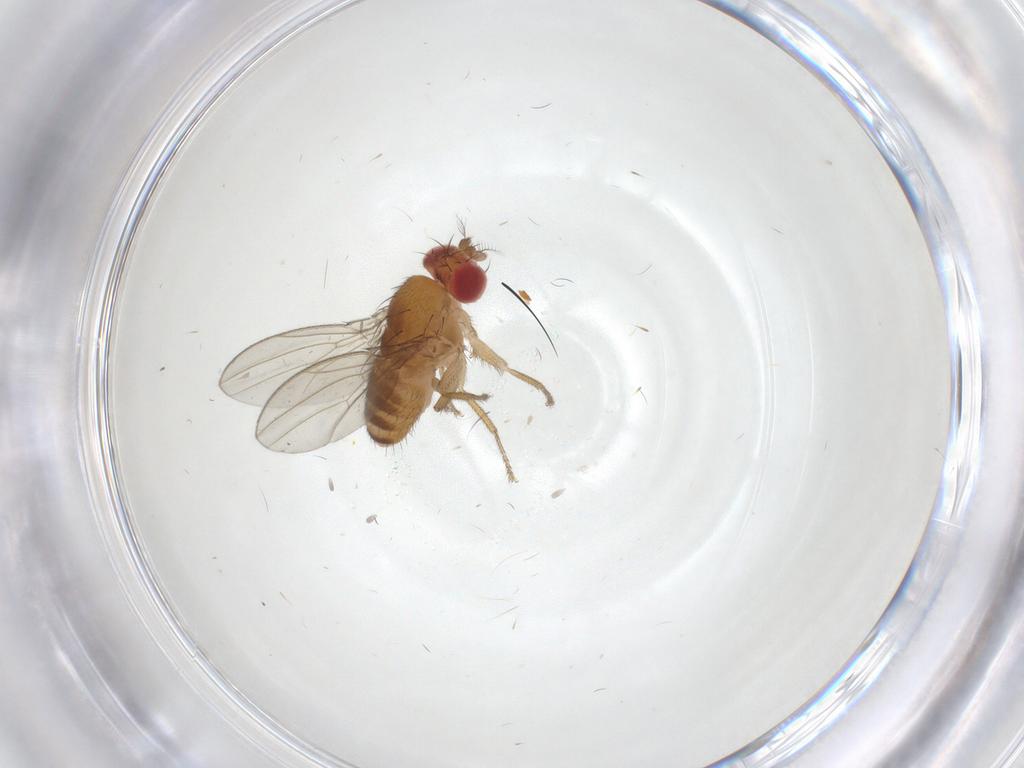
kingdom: Animalia
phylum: Arthropoda
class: Insecta
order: Diptera
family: Drosophilidae
